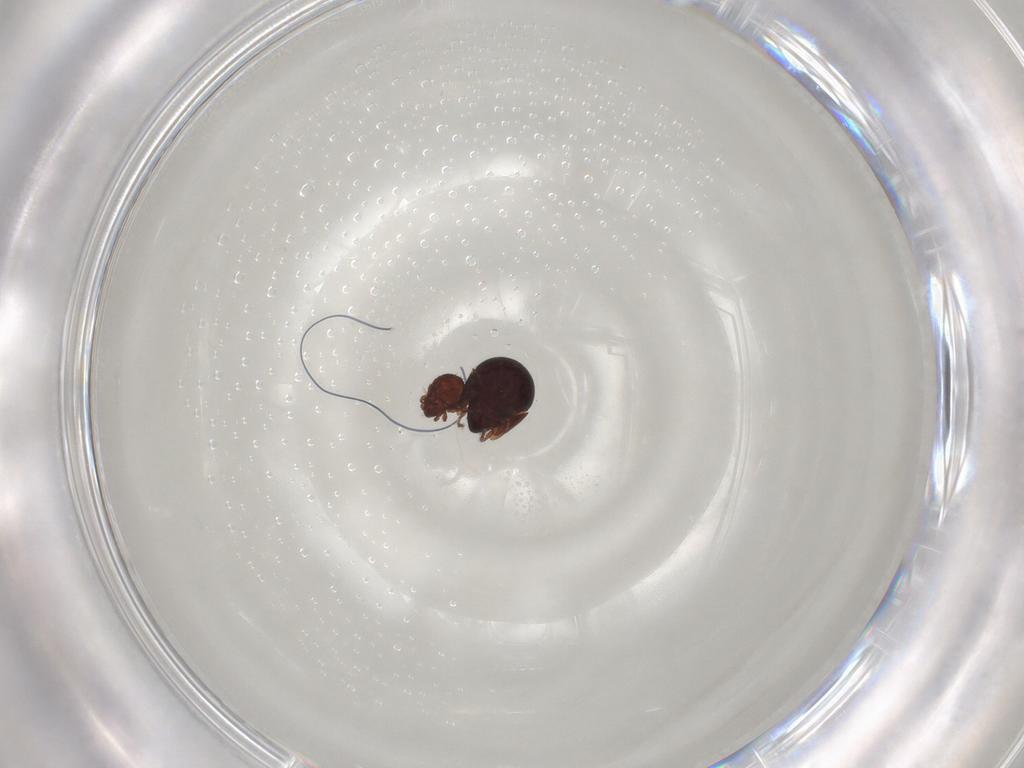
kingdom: Animalia
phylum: Arthropoda
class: Arachnida
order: Sarcoptiformes
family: Galumnidae
